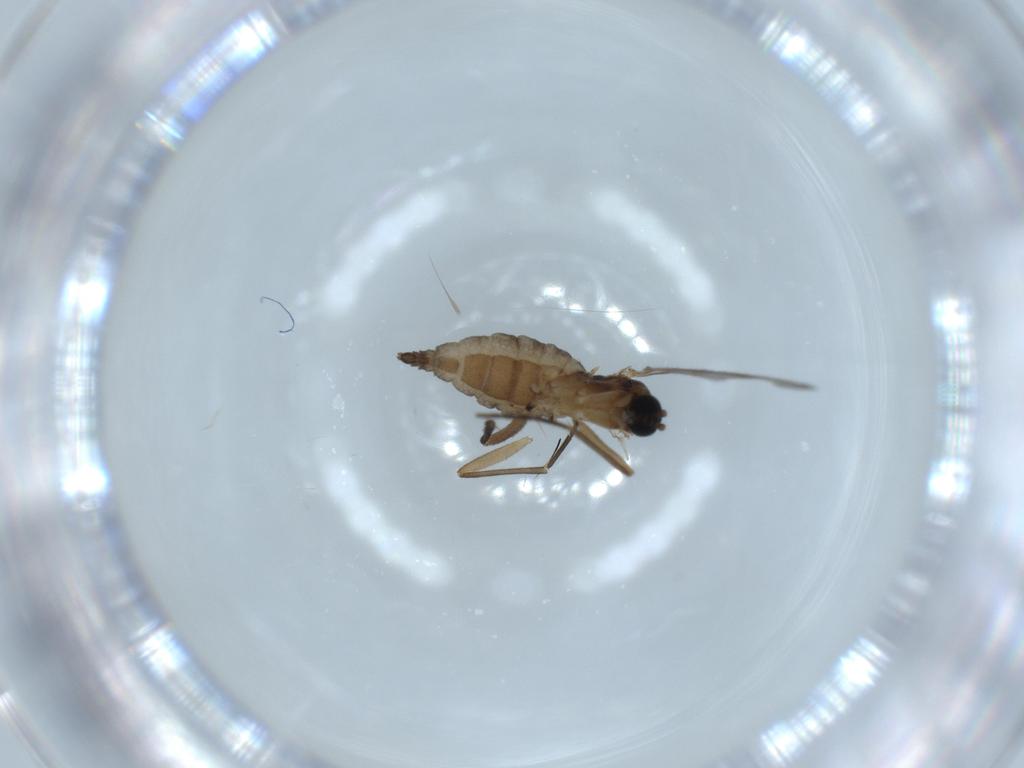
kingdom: Animalia
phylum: Arthropoda
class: Insecta
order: Diptera
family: Sciaridae
